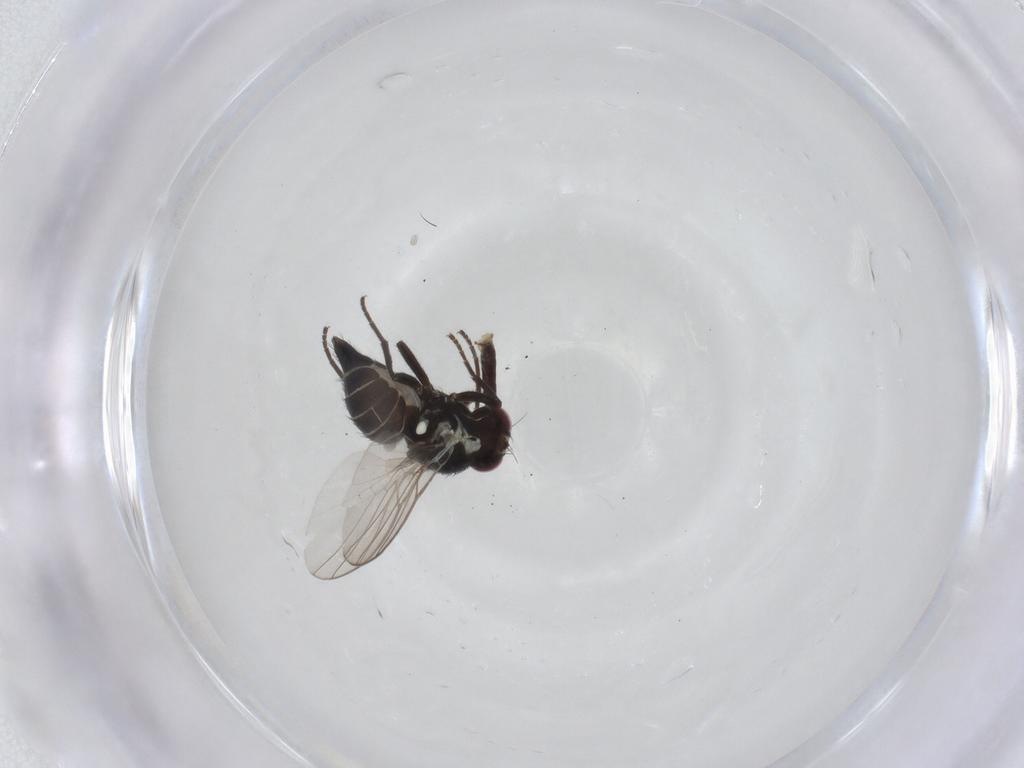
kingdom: Animalia
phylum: Arthropoda
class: Insecta
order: Diptera
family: Agromyzidae
